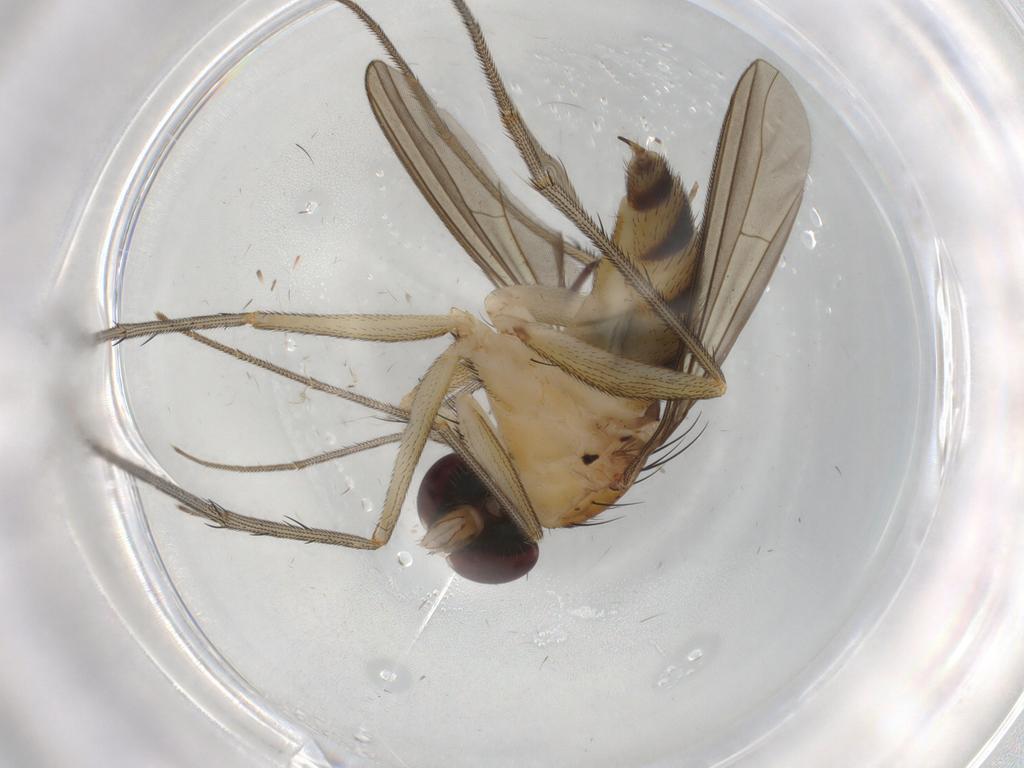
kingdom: Animalia
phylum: Arthropoda
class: Insecta
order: Diptera
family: Chironomidae
